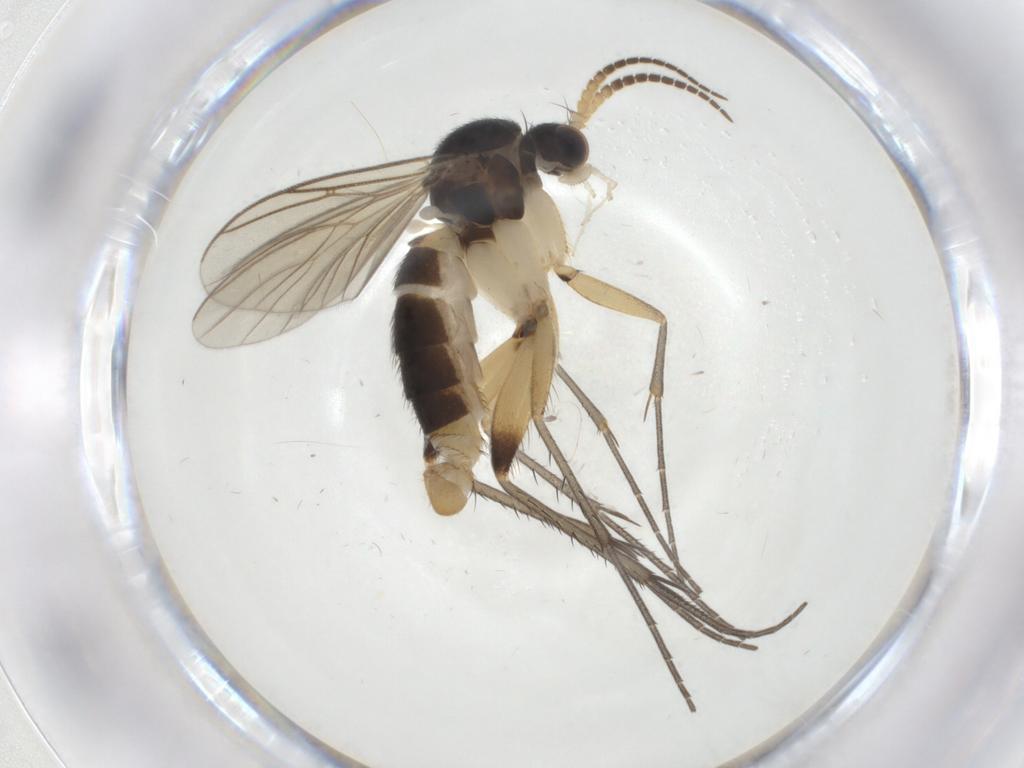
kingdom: Animalia
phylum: Arthropoda
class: Insecta
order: Diptera
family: Mycetophilidae
